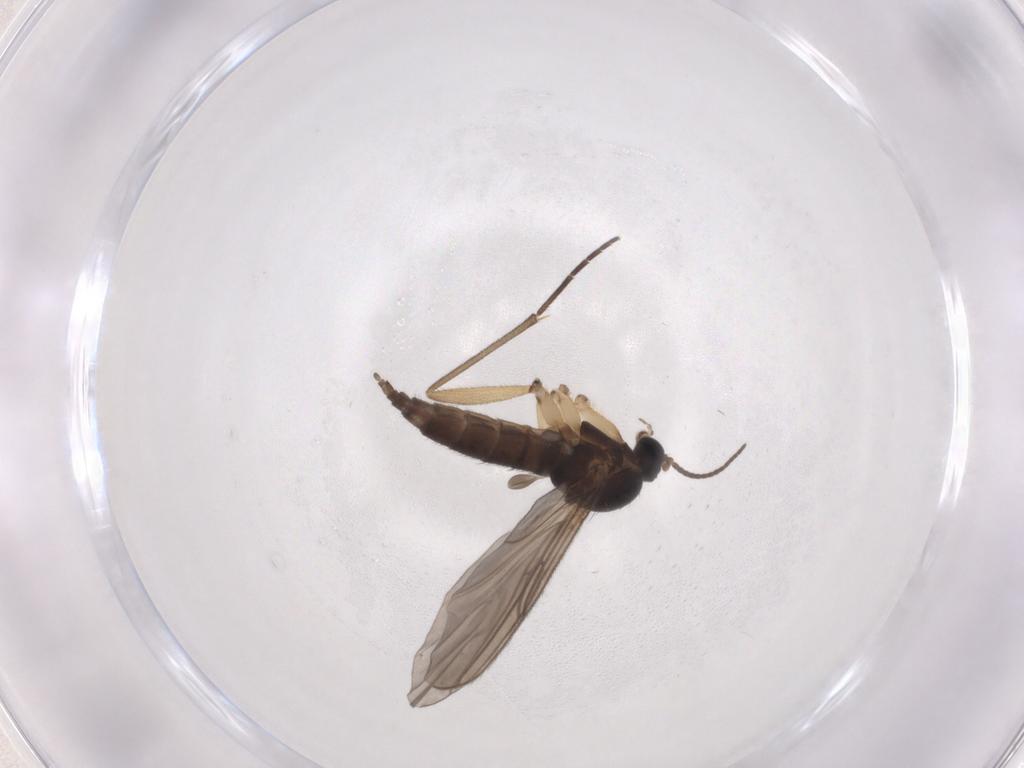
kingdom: Animalia
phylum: Arthropoda
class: Insecta
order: Diptera
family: Sciaridae
